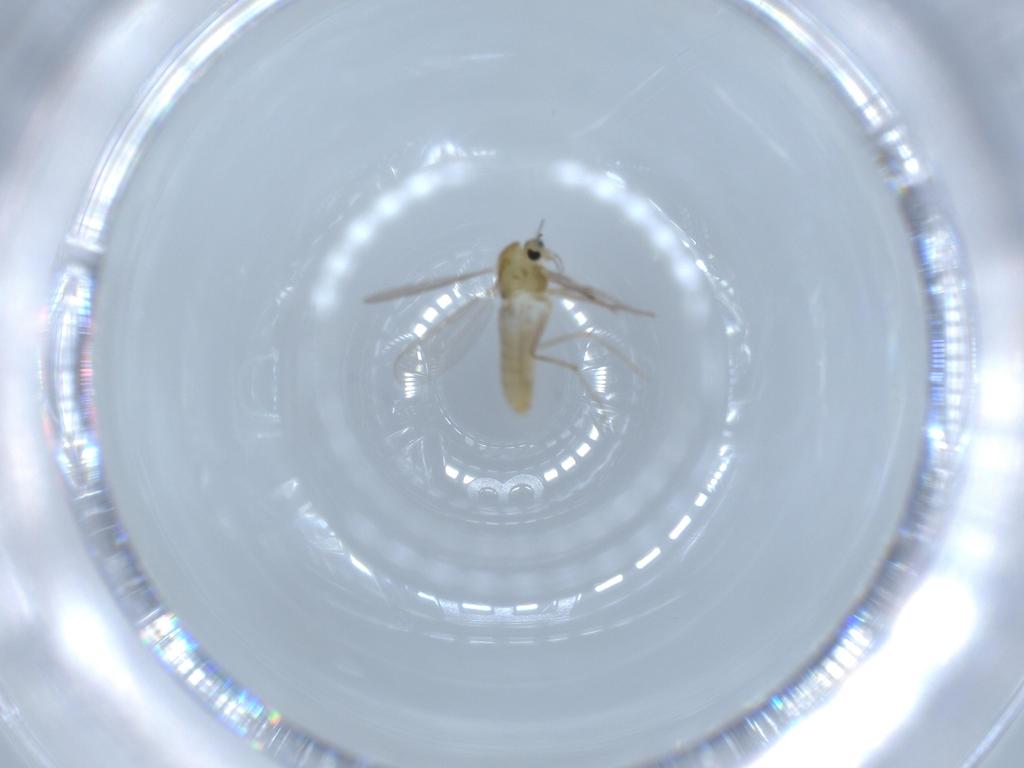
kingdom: Animalia
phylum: Arthropoda
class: Insecta
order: Diptera
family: Chironomidae
